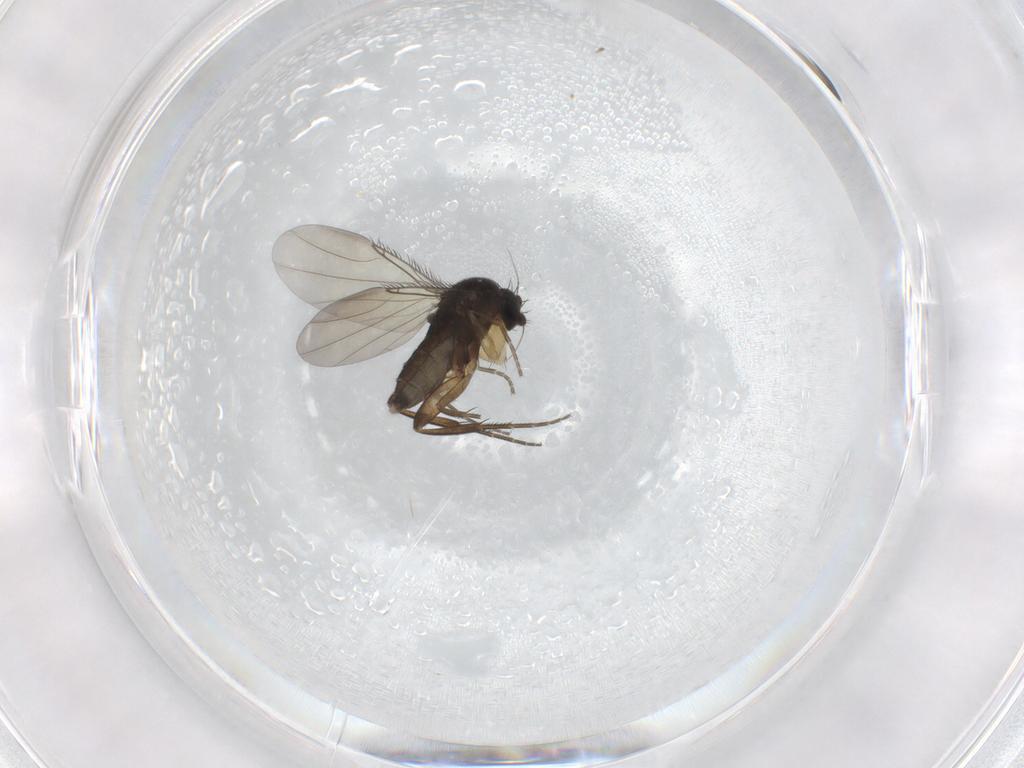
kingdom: Animalia
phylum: Arthropoda
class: Insecta
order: Diptera
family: Phoridae
